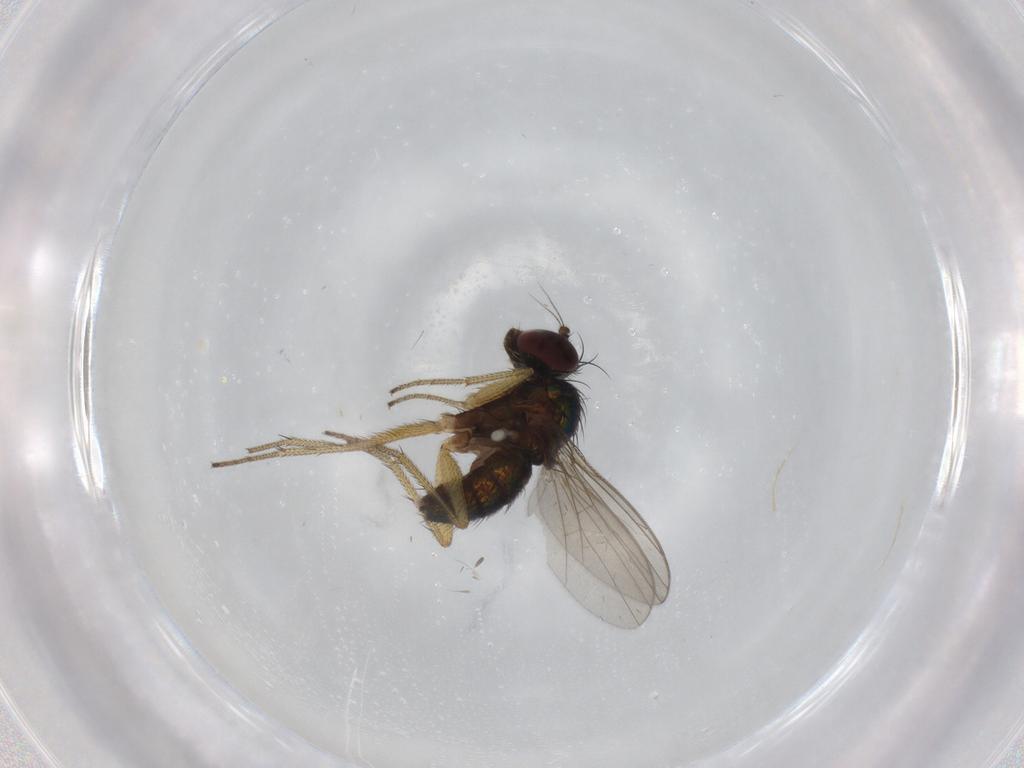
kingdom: Animalia
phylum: Arthropoda
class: Insecta
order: Diptera
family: Dolichopodidae
